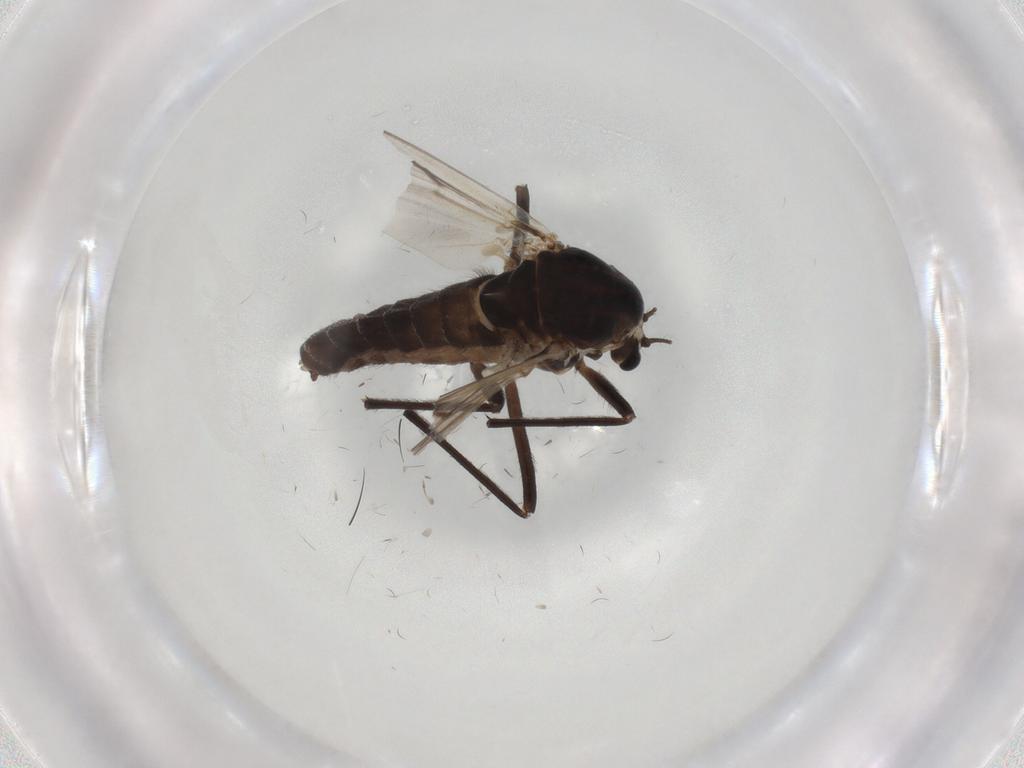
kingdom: Animalia
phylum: Arthropoda
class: Insecta
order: Diptera
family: Chironomidae
